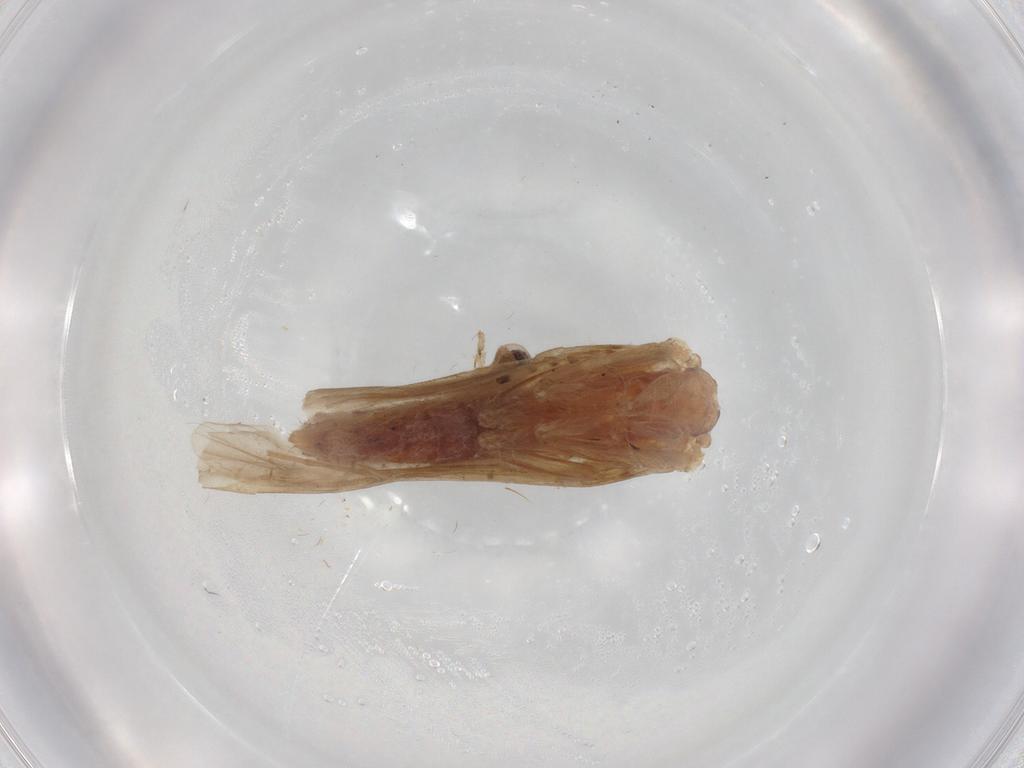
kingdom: Animalia
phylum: Arthropoda
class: Insecta
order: Trichoptera
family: Ecnomidae
